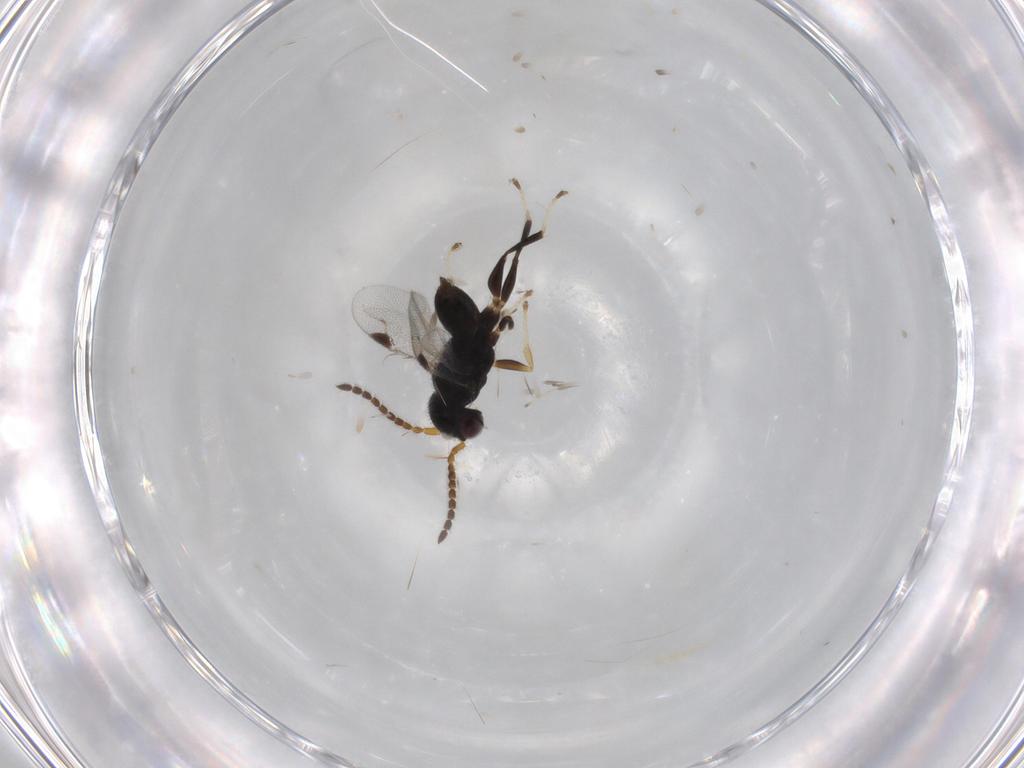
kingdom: Animalia
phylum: Arthropoda
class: Insecta
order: Hymenoptera
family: Dryinidae
